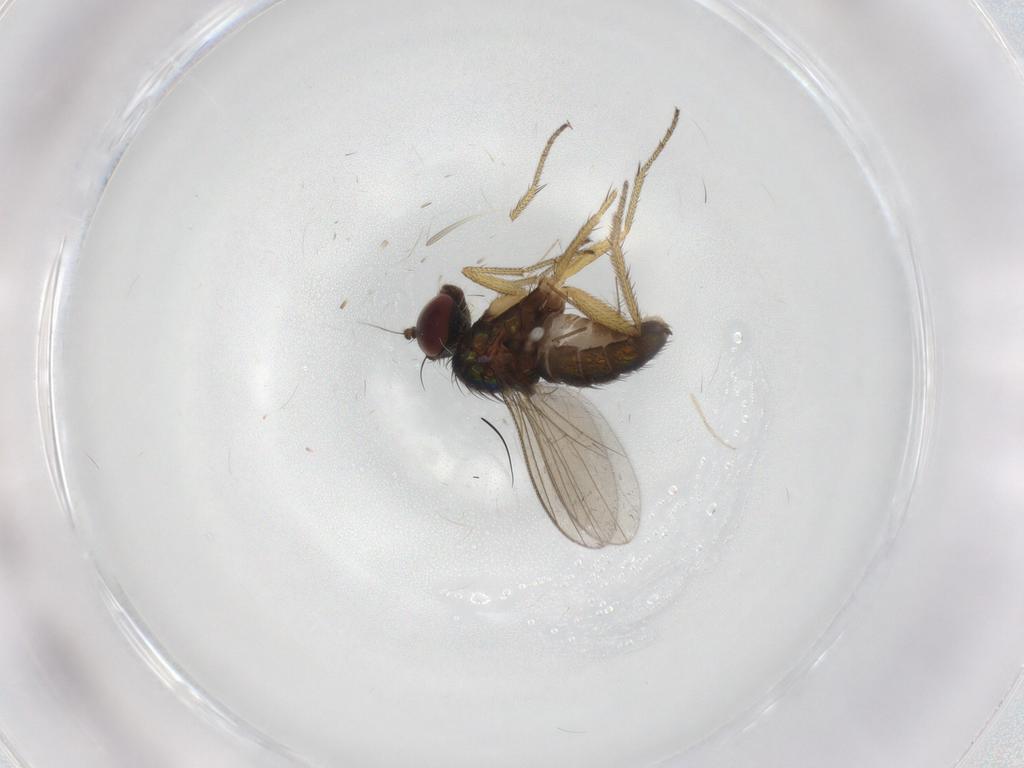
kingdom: Animalia
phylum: Arthropoda
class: Insecta
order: Diptera
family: Chironomidae
